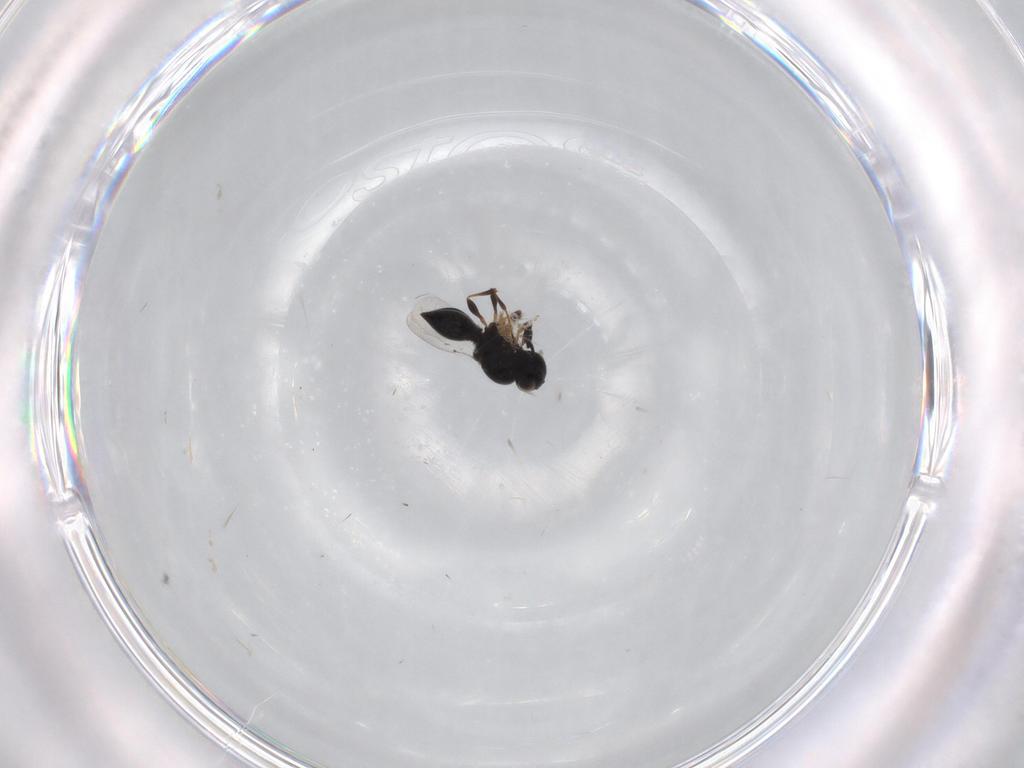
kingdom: Animalia
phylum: Arthropoda
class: Insecta
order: Hymenoptera
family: Platygastridae
